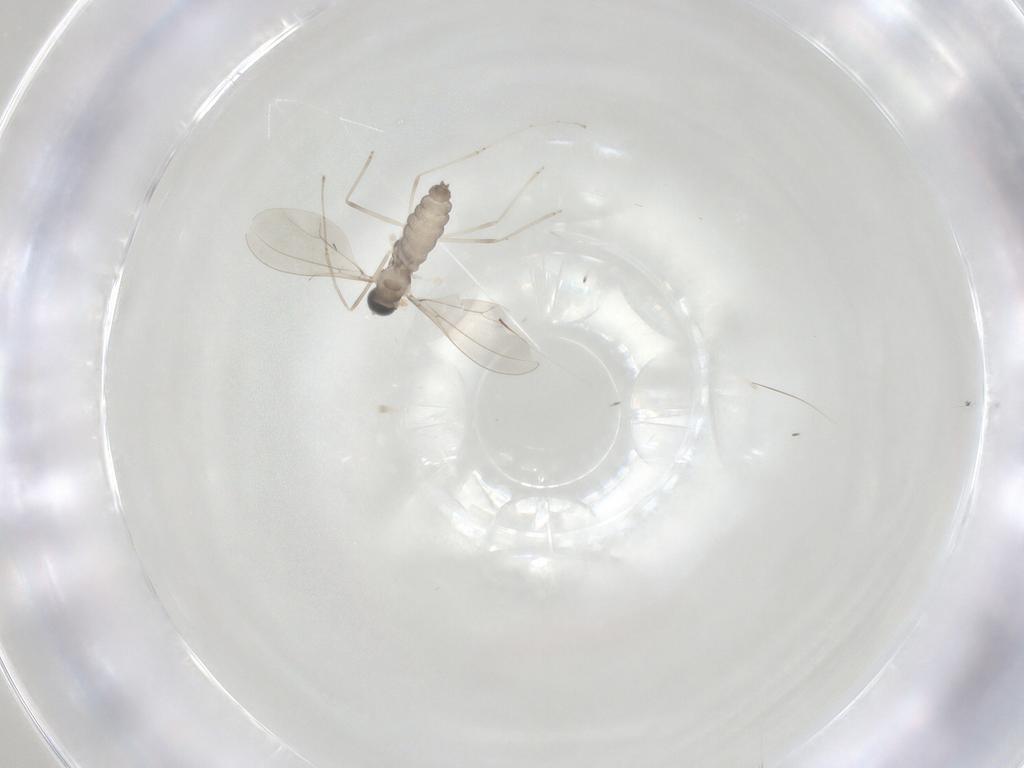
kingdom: Animalia
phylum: Arthropoda
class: Insecta
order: Diptera
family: Cecidomyiidae
